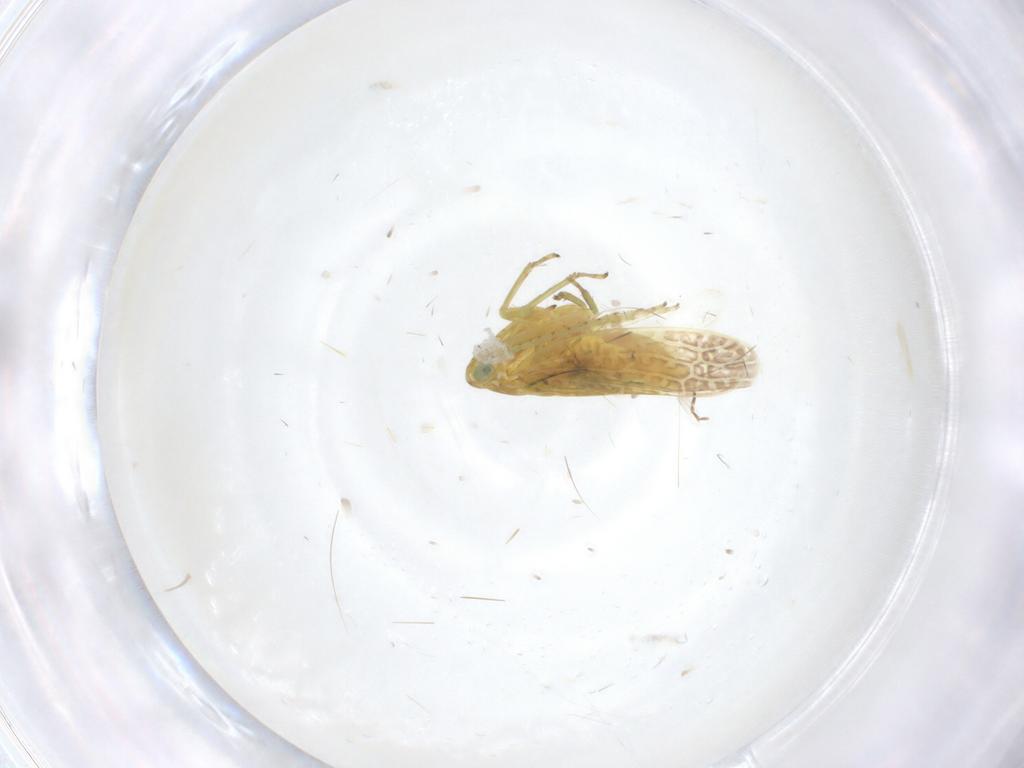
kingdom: Animalia
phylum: Arthropoda
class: Insecta
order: Hemiptera
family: Cicadellidae
